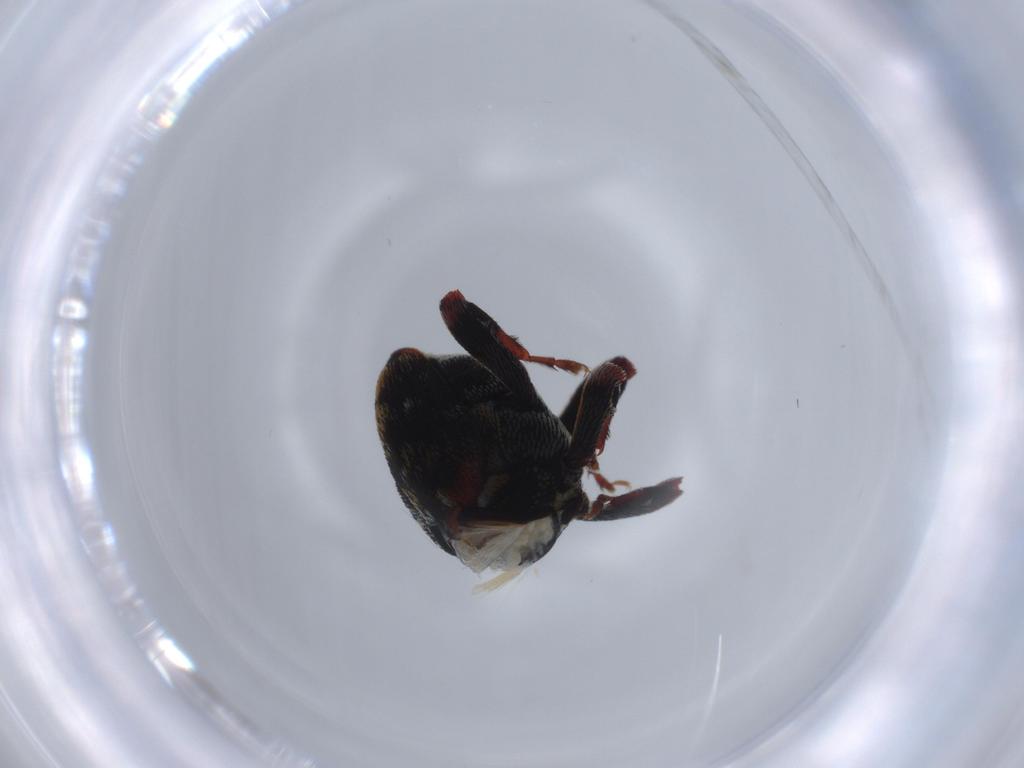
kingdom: Animalia
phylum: Arthropoda
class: Insecta
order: Coleoptera
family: Curculionidae
